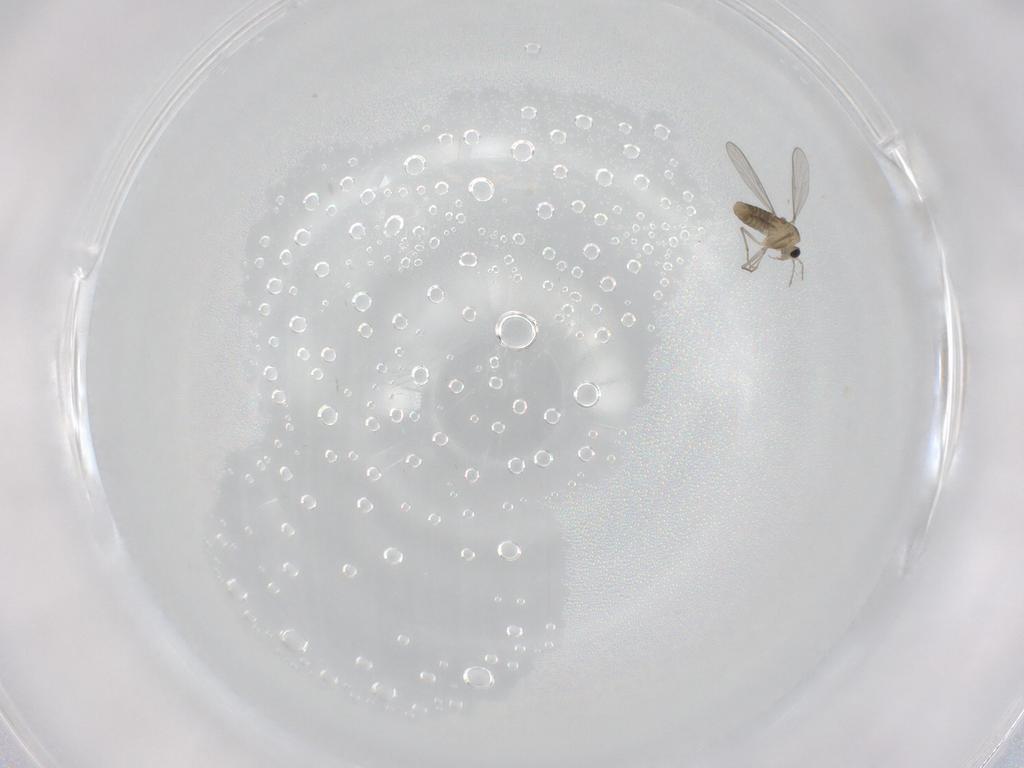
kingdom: Animalia
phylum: Arthropoda
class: Insecta
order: Diptera
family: Chironomidae
